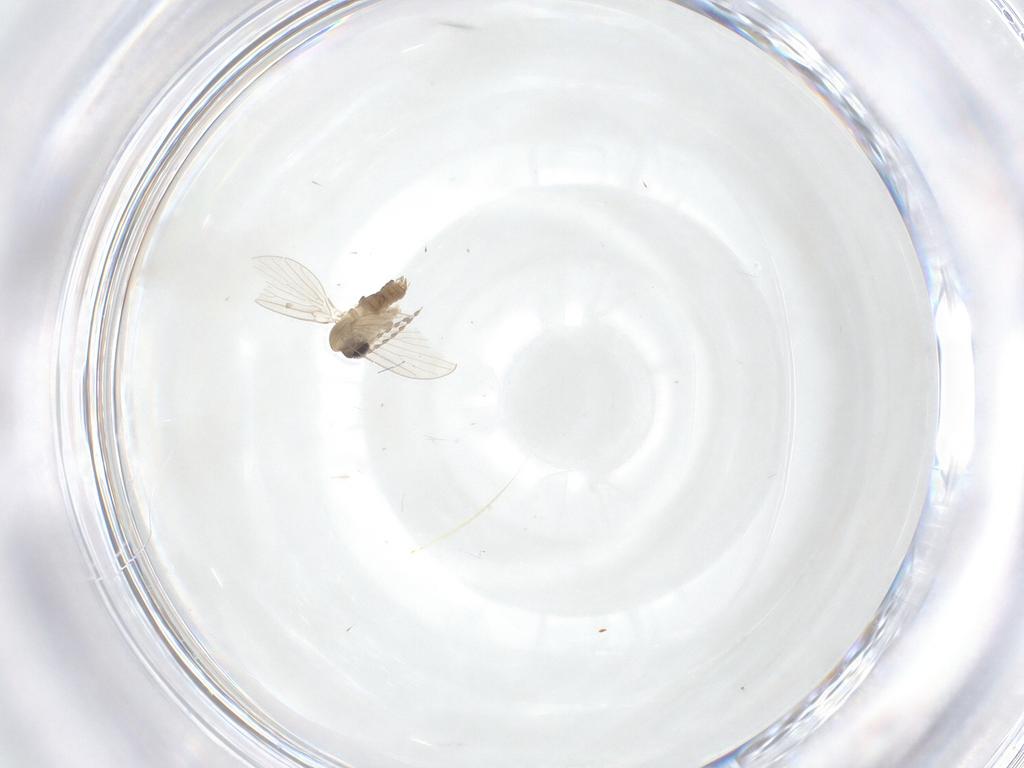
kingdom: Animalia
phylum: Arthropoda
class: Insecta
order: Diptera
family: Psychodidae
